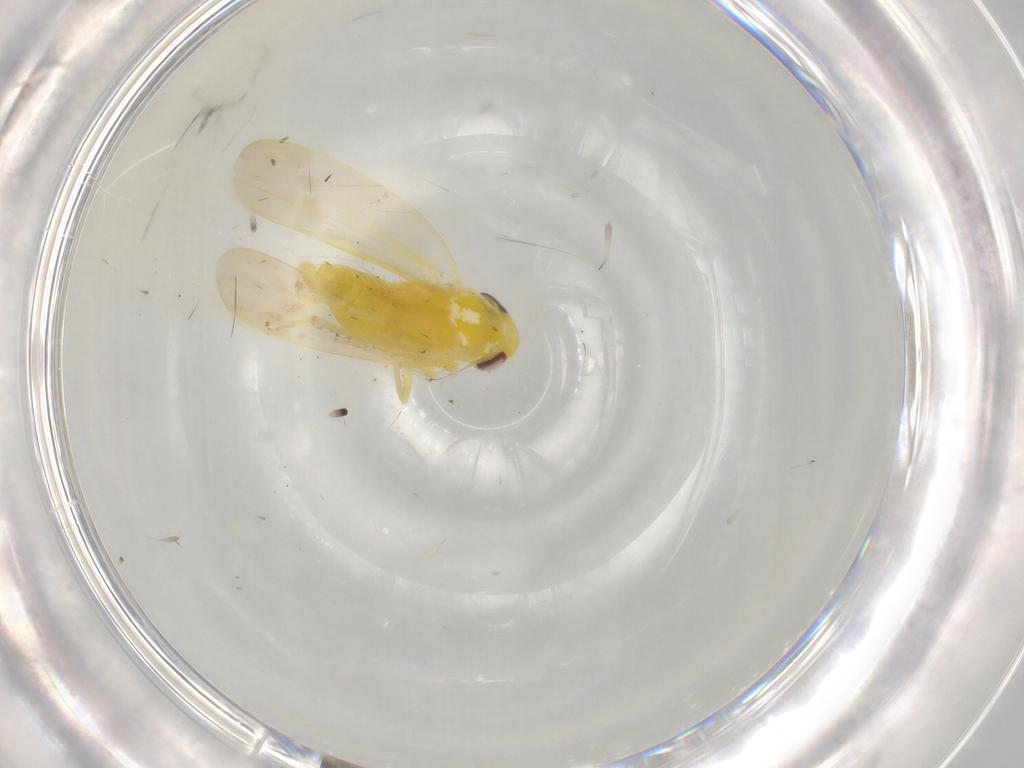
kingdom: Animalia
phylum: Arthropoda
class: Insecta
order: Hemiptera
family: Cicadellidae
